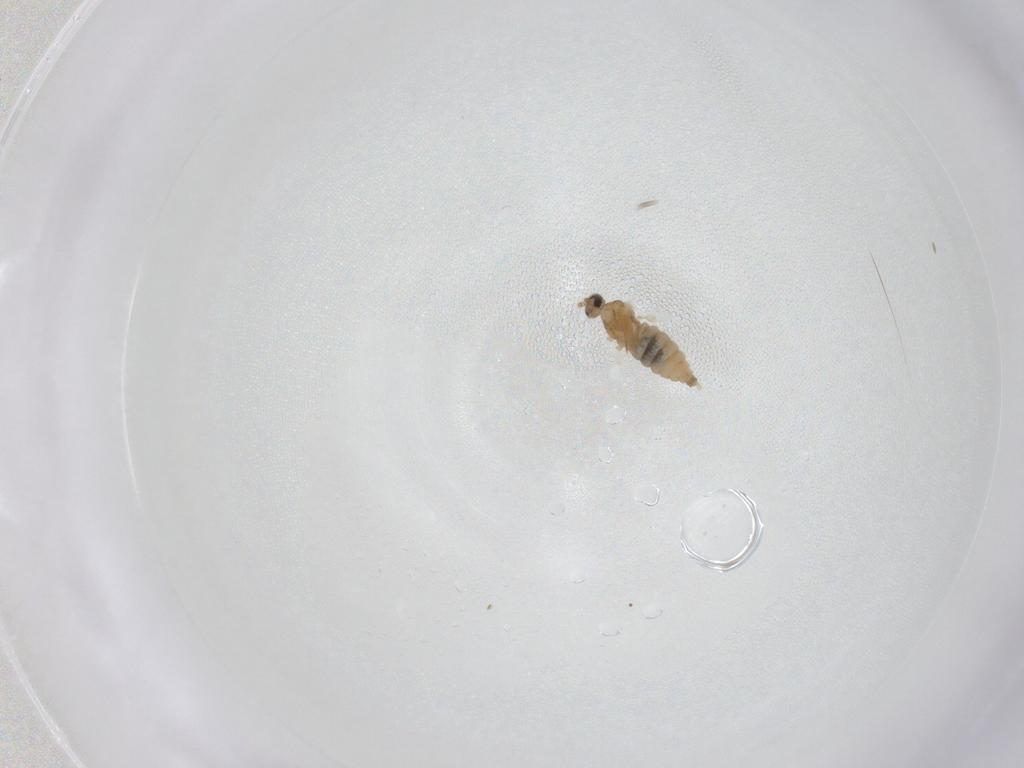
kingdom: Animalia
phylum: Arthropoda
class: Insecta
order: Diptera
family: Cecidomyiidae
